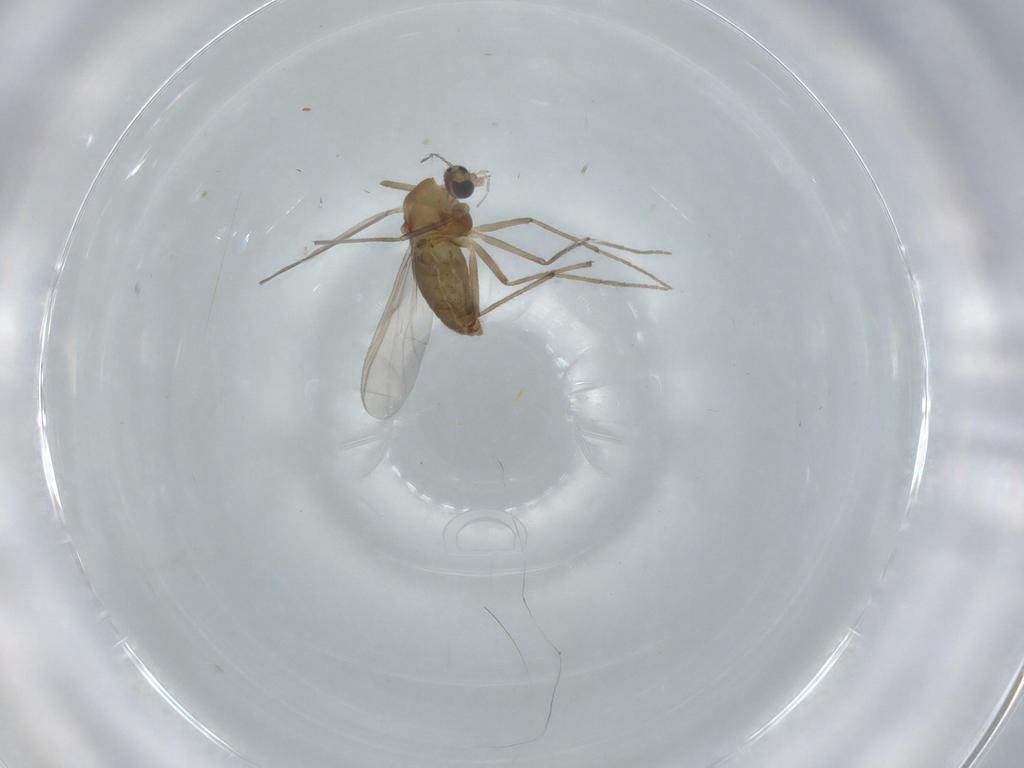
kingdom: Animalia
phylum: Arthropoda
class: Insecta
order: Diptera
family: Chironomidae
